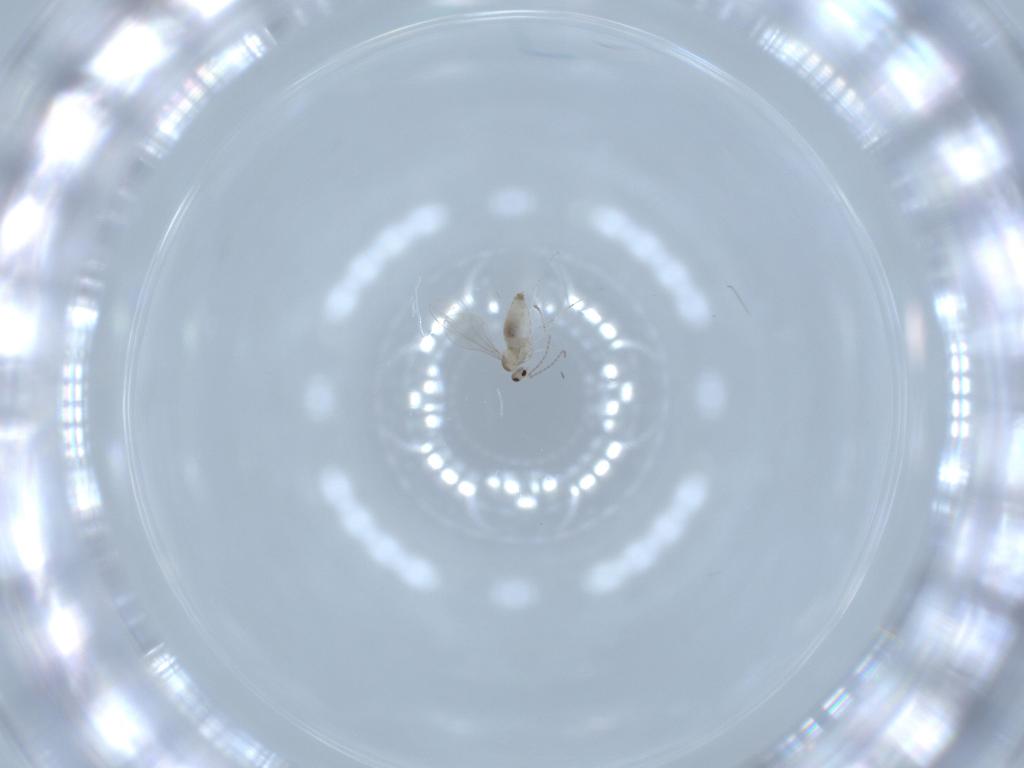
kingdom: Animalia
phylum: Arthropoda
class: Insecta
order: Diptera
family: Cecidomyiidae
